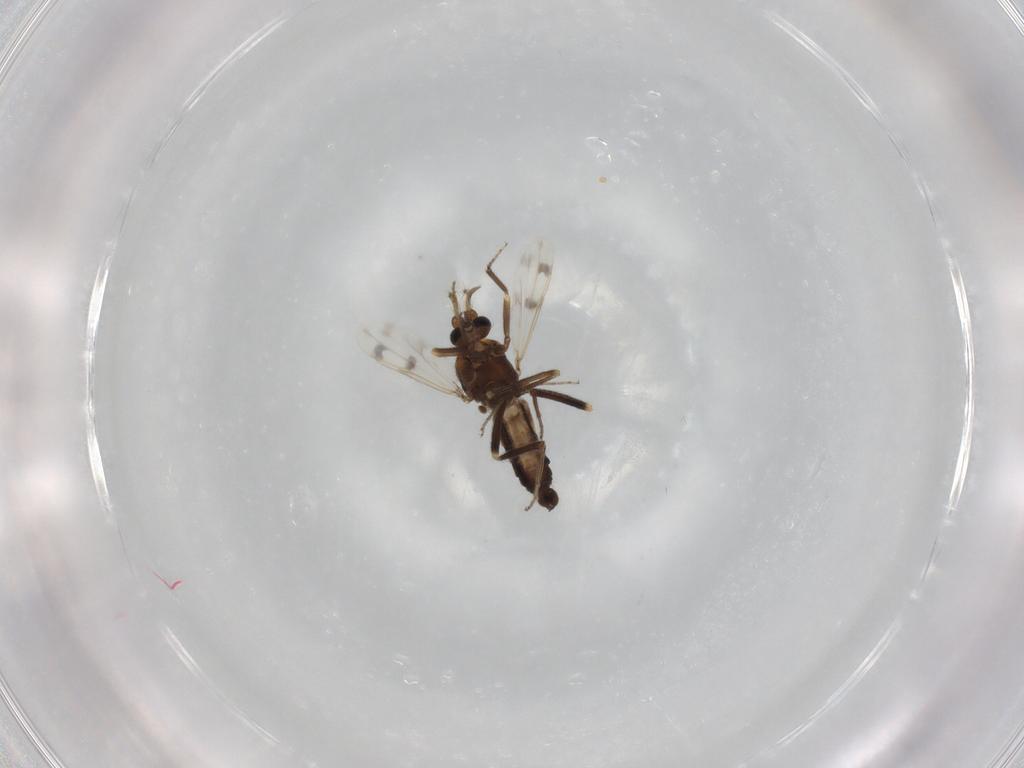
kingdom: Animalia
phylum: Arthropoda
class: Insecta
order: Diptera
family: Ceratopogonidae
